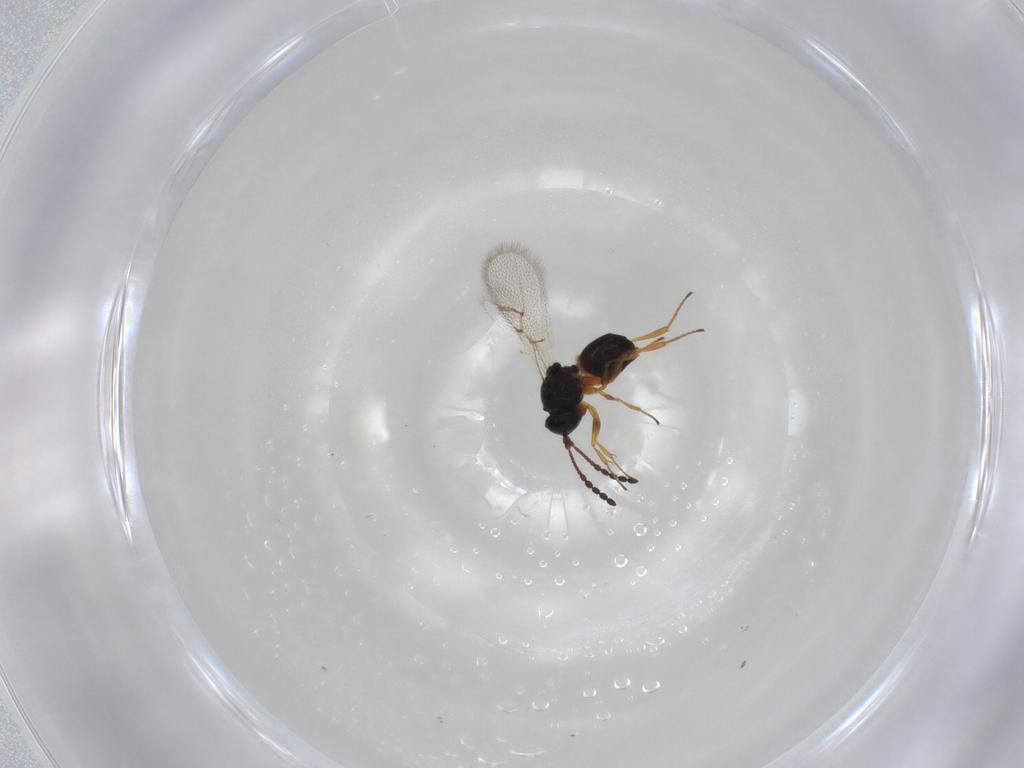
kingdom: Animalia
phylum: Arthropoda
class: Insecta
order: Hymenoptera
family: Figitidae
